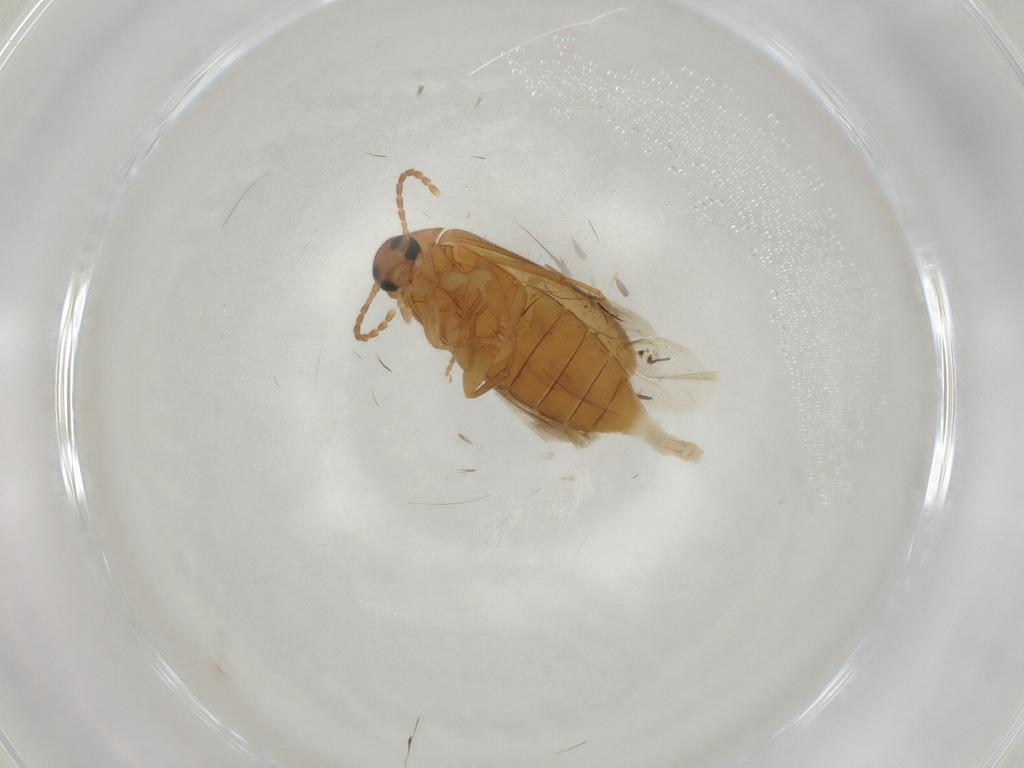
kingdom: Animalia
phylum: Arthropoda
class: Insecta
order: Coleoptera
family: Scraptiidae
